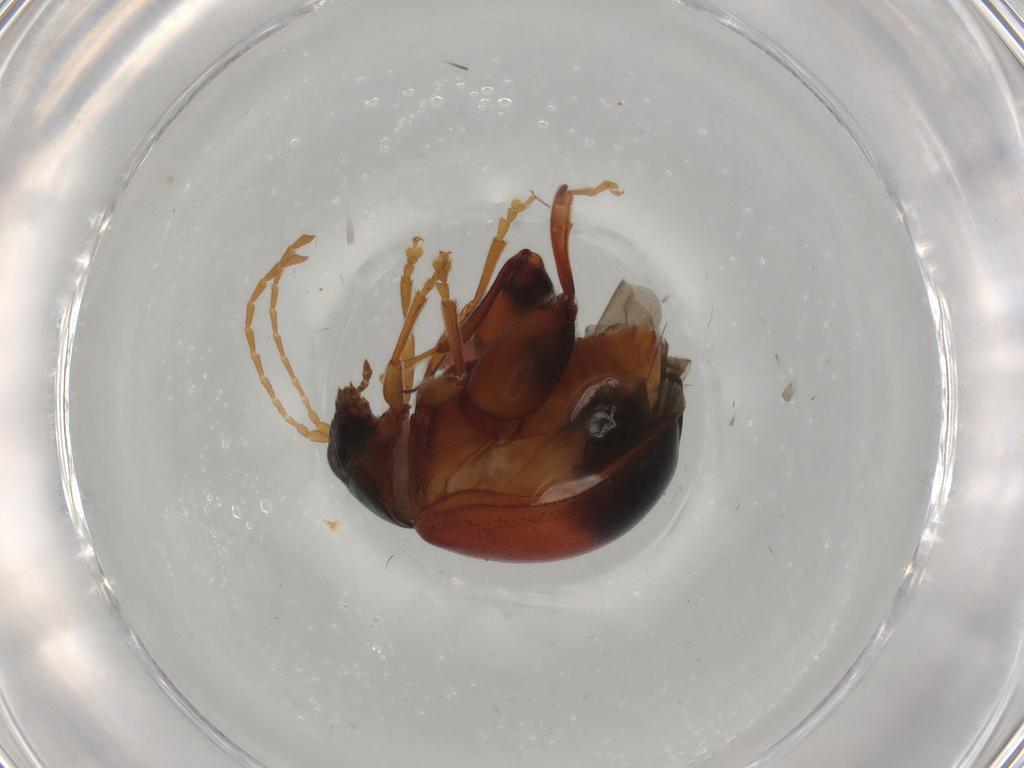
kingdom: Animalia
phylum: Arthropoda
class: Insecta
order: Coleoptera
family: Chrysomelidae
